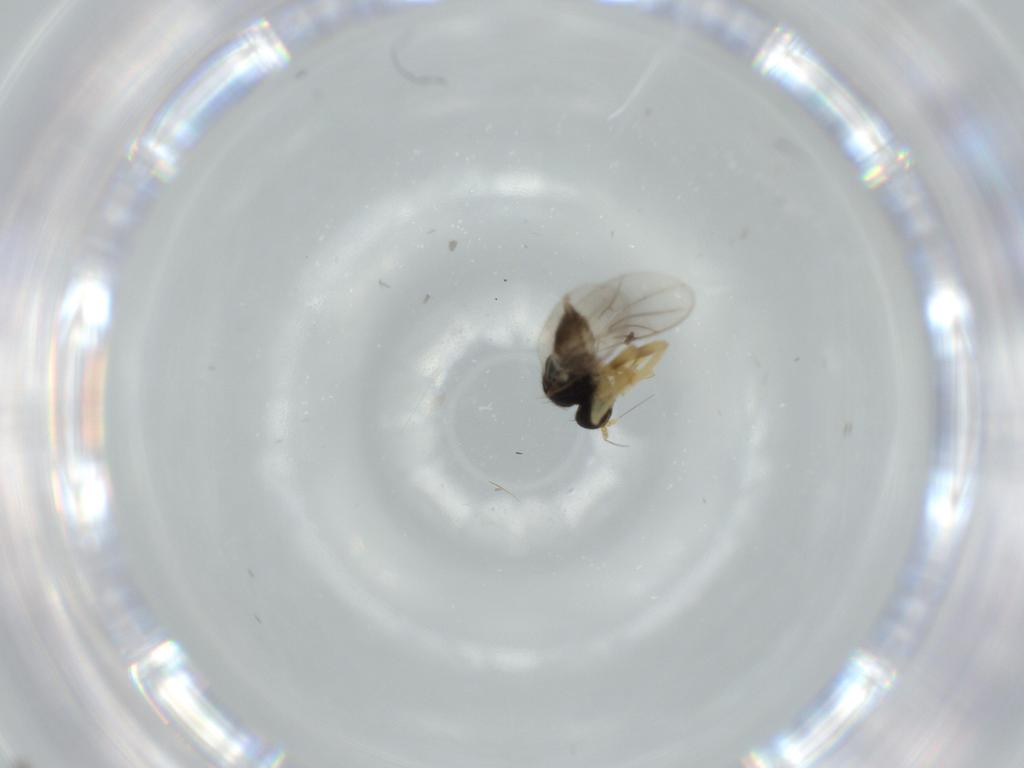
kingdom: Animalia
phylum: Arthropoda
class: Insecta
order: Diptera
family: Hybotidae
